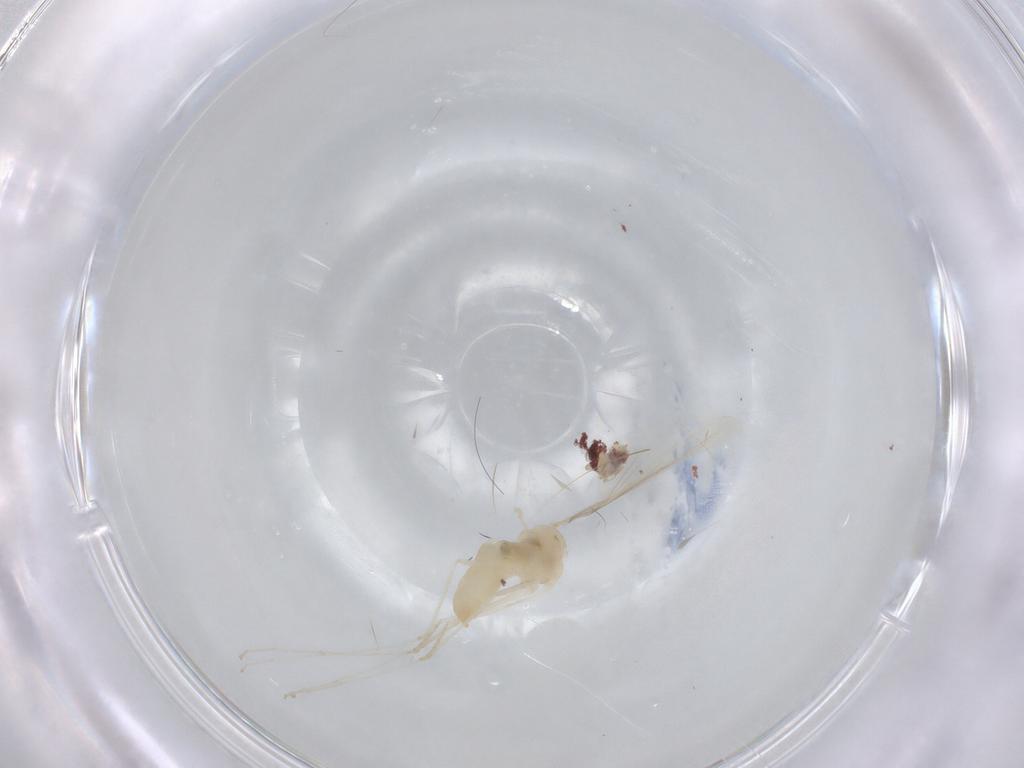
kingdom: Animalia
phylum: Arthropoda
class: Insecta
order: Diptera
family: Cecidomyiidae
